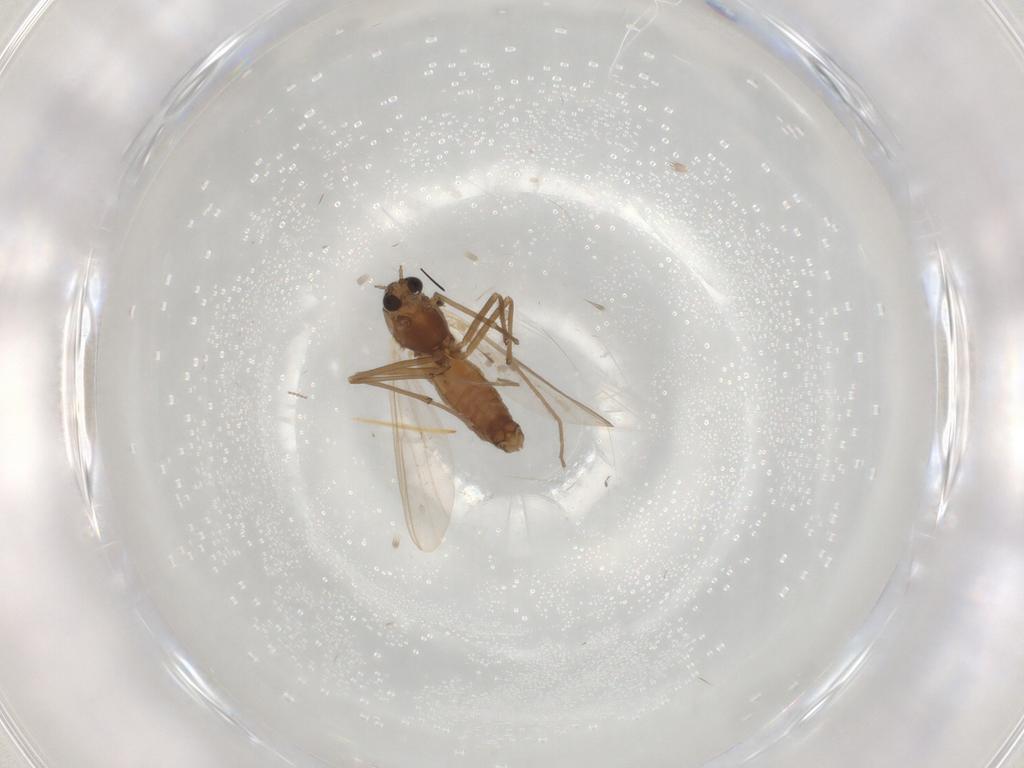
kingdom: Animalia
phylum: Arthropoda
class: Insecta
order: Diptera
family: Chironomidae
